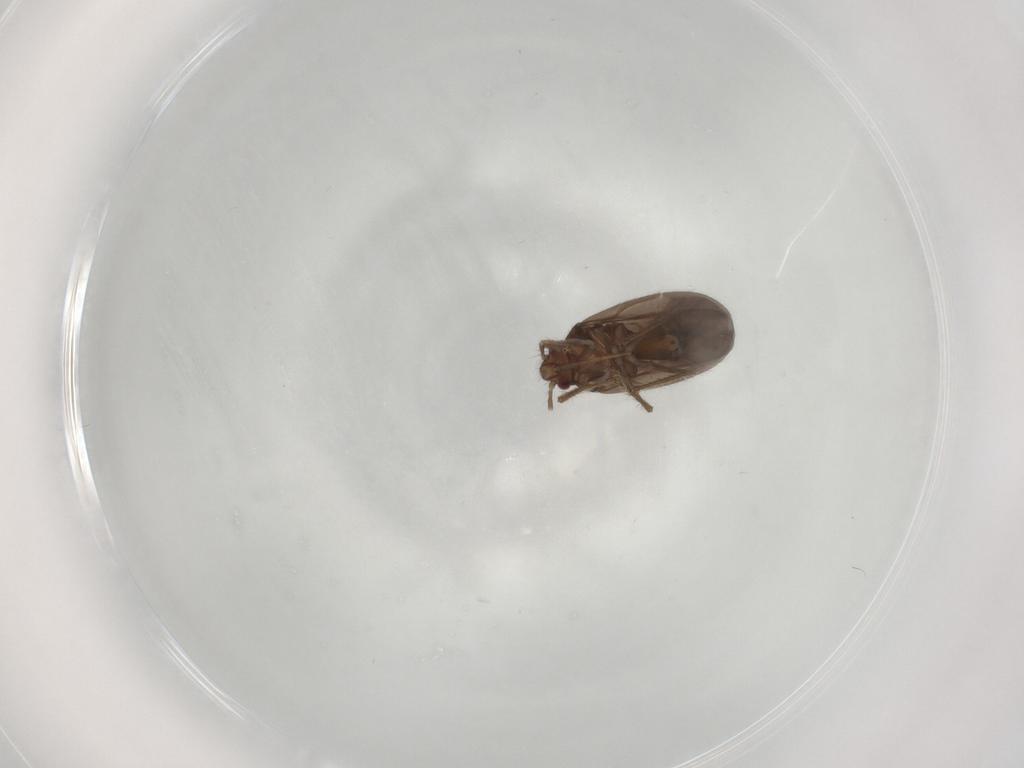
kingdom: Animalia
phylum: Arthropoda
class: Insecta
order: Hemiptera
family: Ceratocombidae
